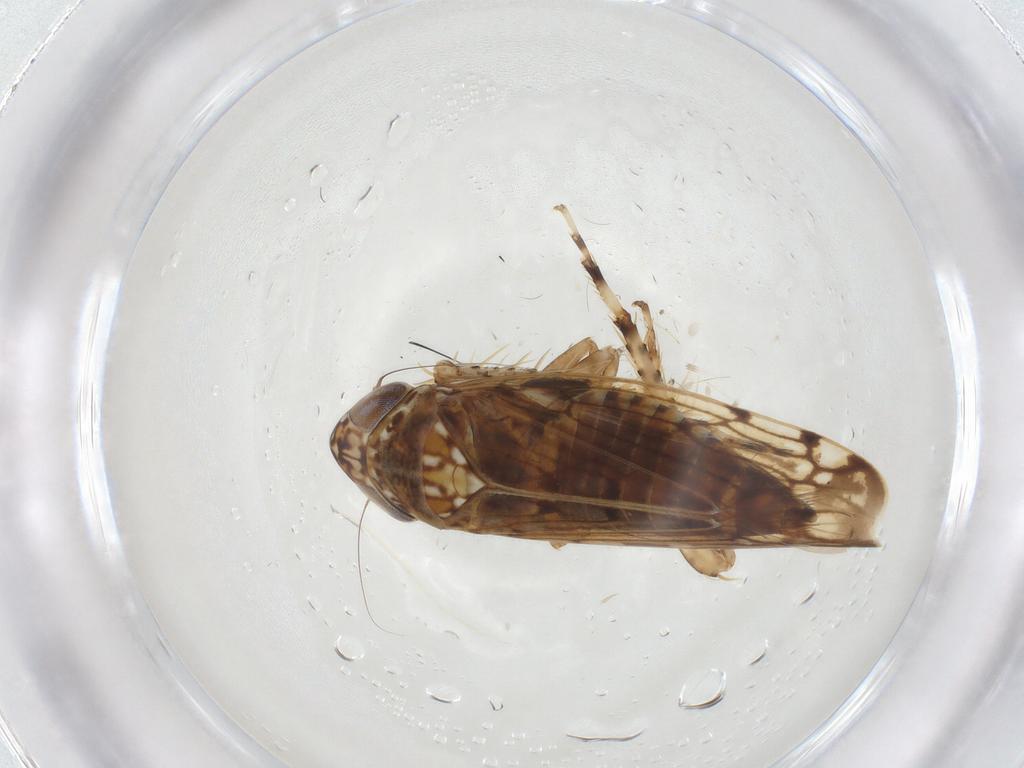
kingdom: Animalia
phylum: Arthropoda
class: Insecta
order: Hemiptera
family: Cicadellidae
